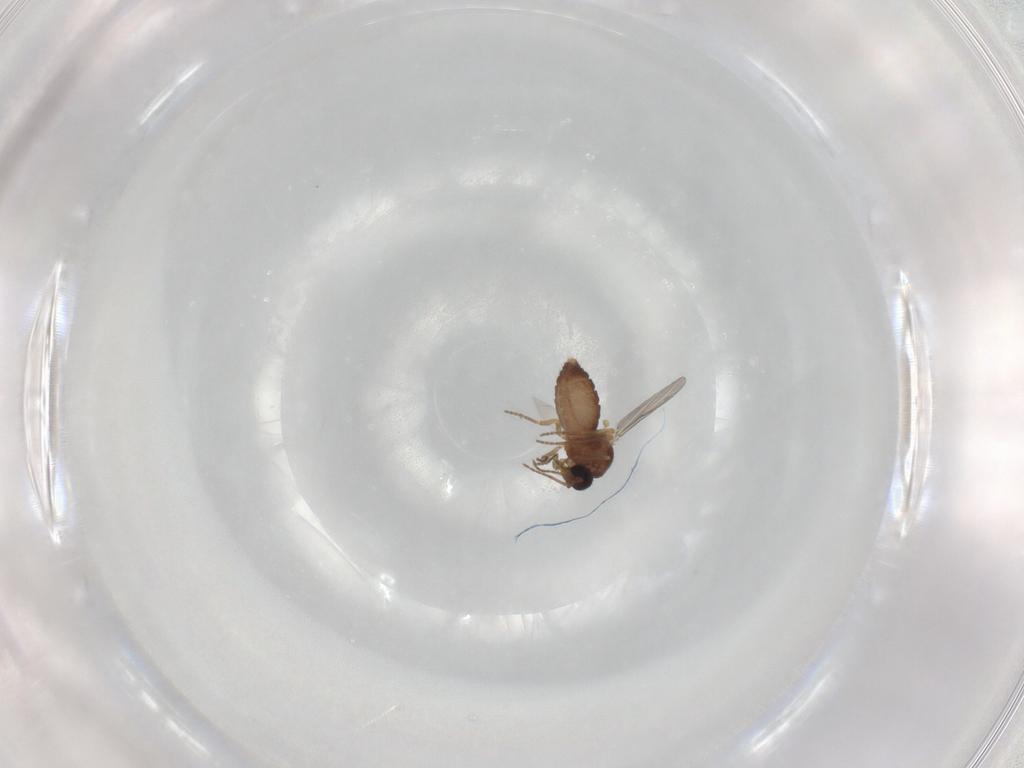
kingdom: Animalia
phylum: Arthropoda
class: Insecta
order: Diptera
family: Ceratopogonidae
